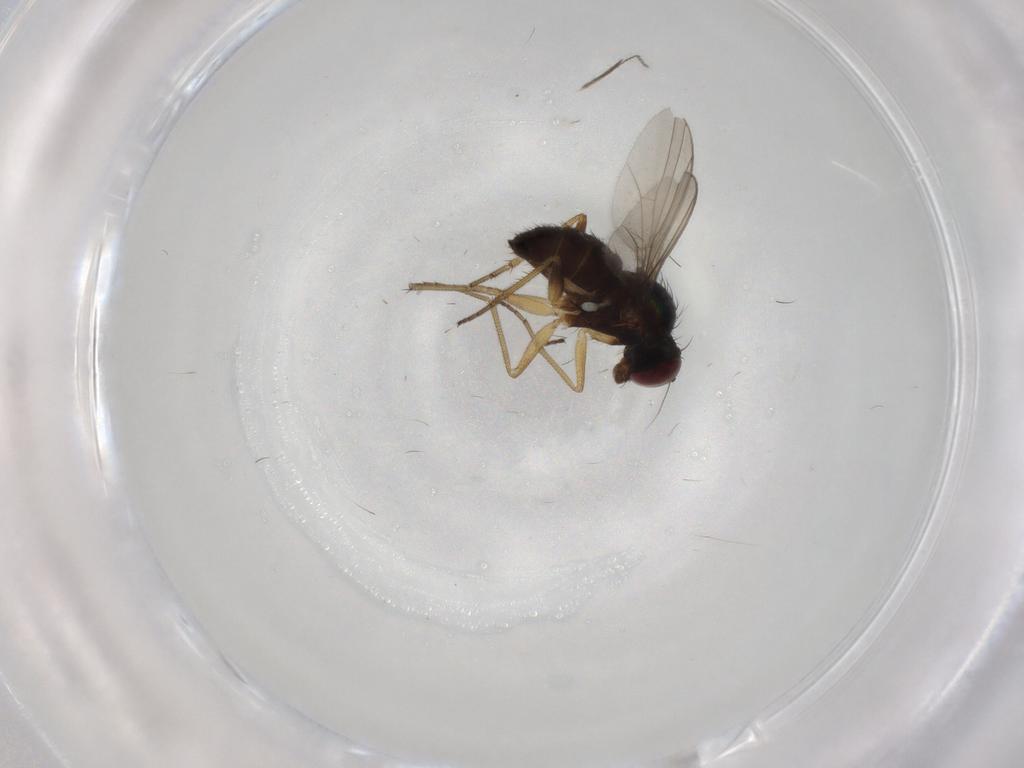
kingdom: Animalia
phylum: Arthropoda
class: Insecta
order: Diptera
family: Dolichopodidae
